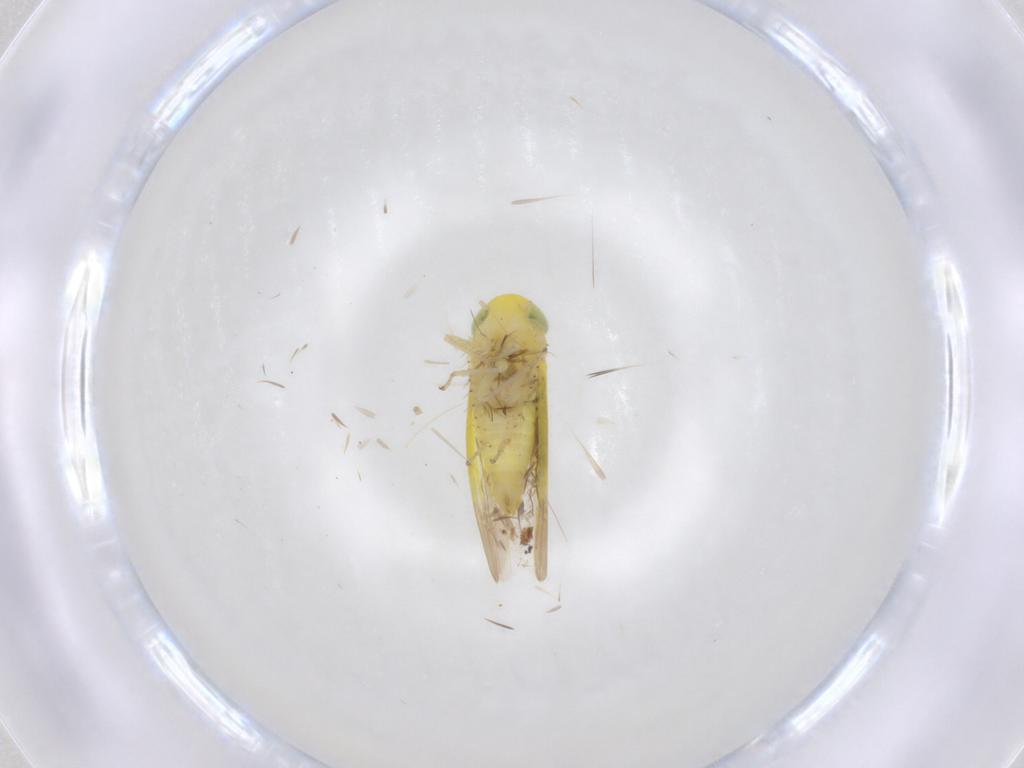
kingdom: Animalia
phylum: Arthropoda
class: Insecta
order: Hemiptera
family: Cicadellidae
